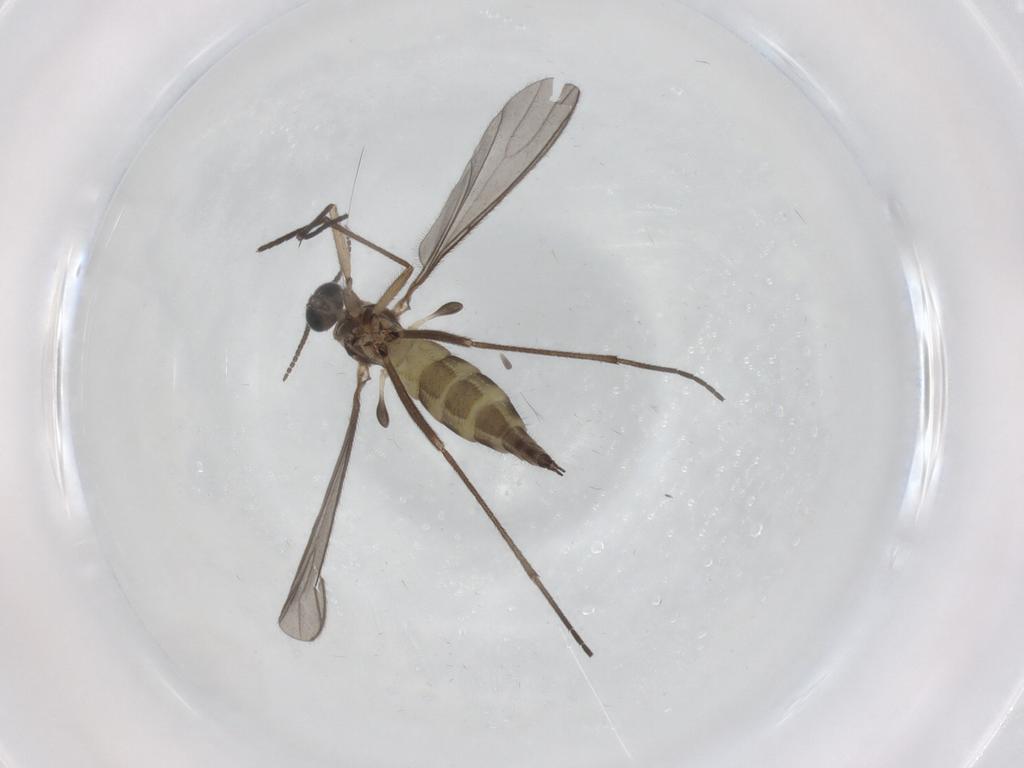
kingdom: Animalia
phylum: Arthropoda
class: Insecta
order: Diptera
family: Sciaridae
